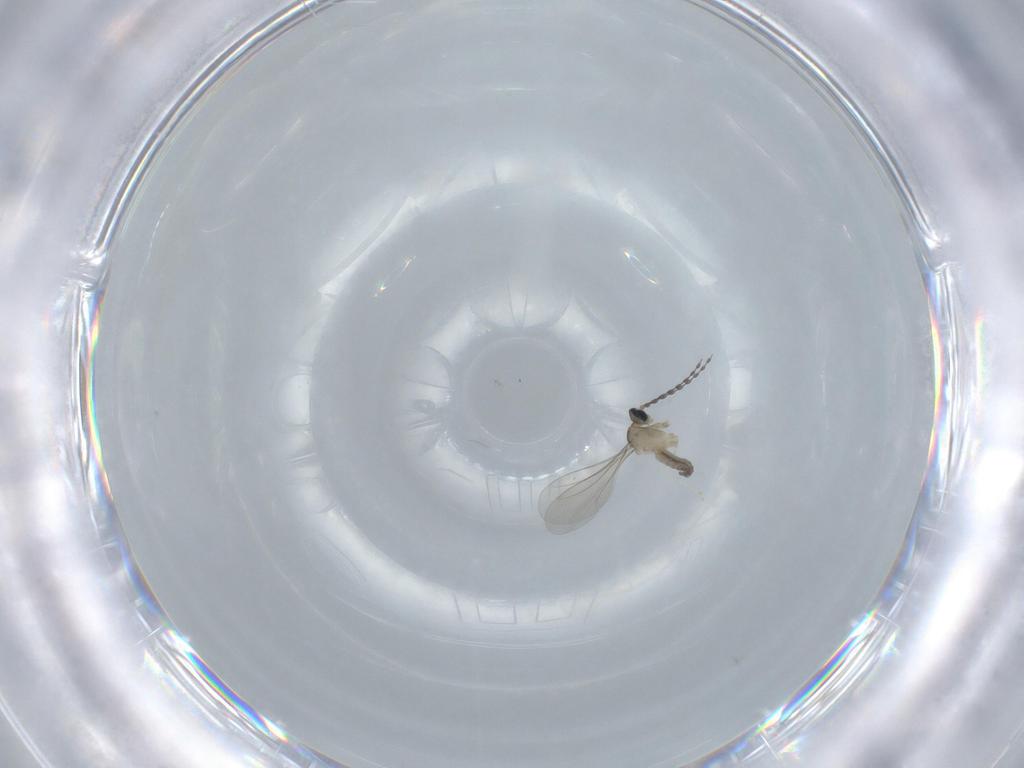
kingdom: Animalia
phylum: Arthropoda
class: Insecta
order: Diptera
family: Cecidomyiidae
